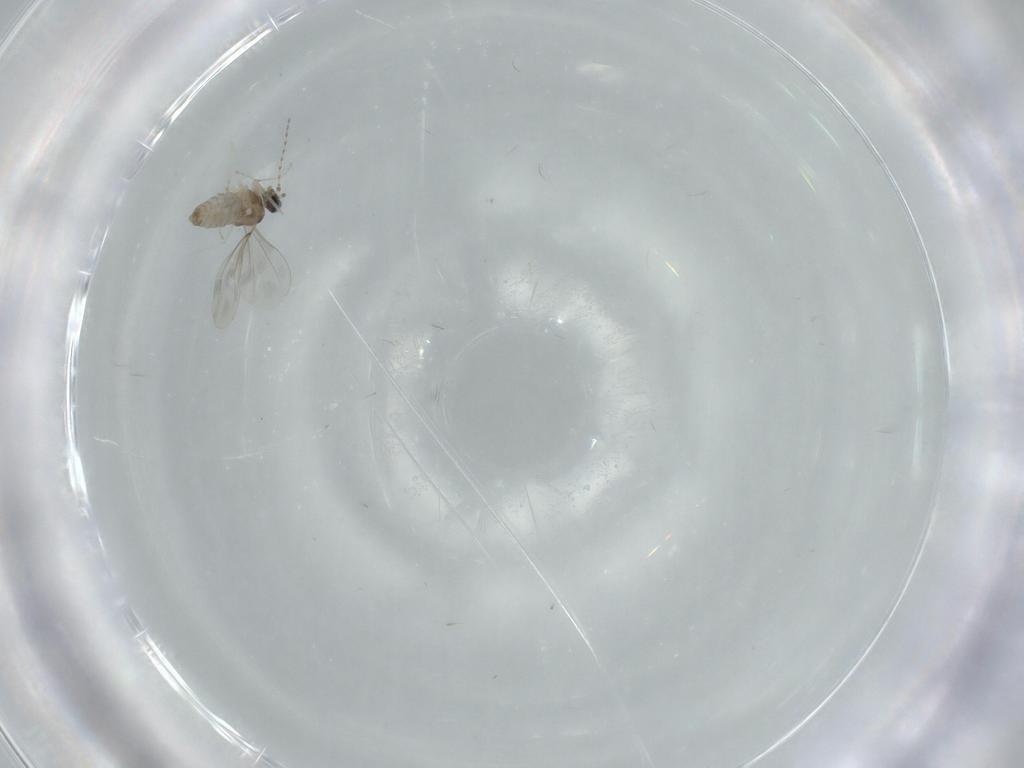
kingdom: Animalia
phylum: Arthropoda
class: Insecta
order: Diptera
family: Cecidomyiidae
